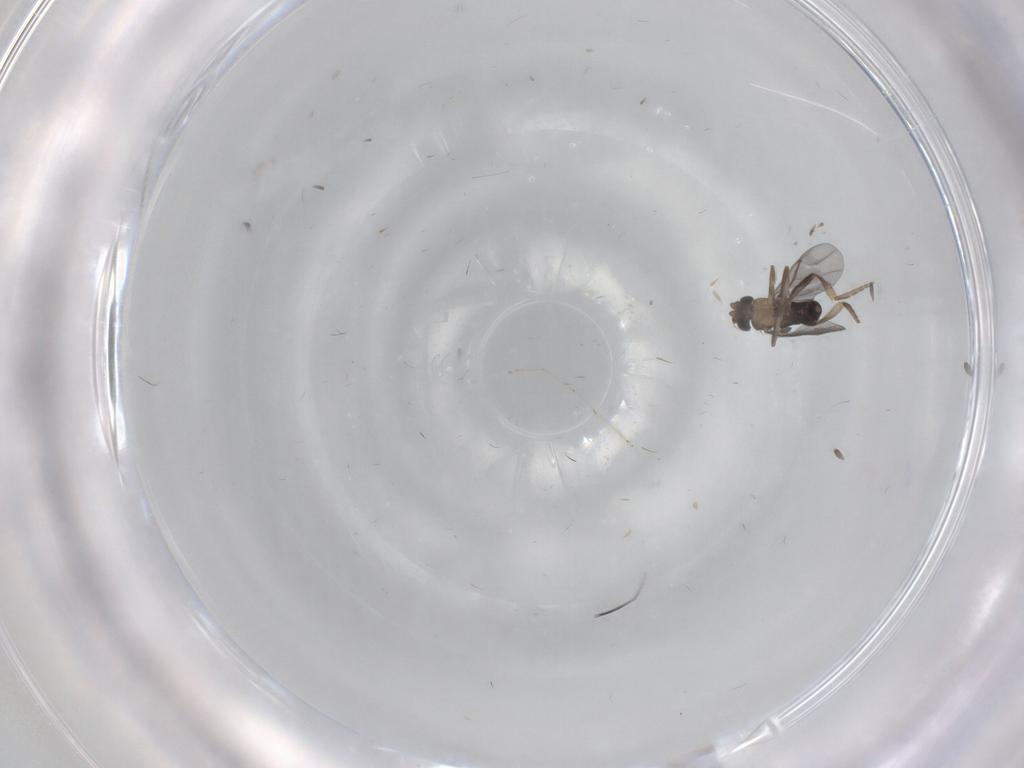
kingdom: Animalia
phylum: Arthropoda
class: Insecta
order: Diptera
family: Cecidomyiidae
